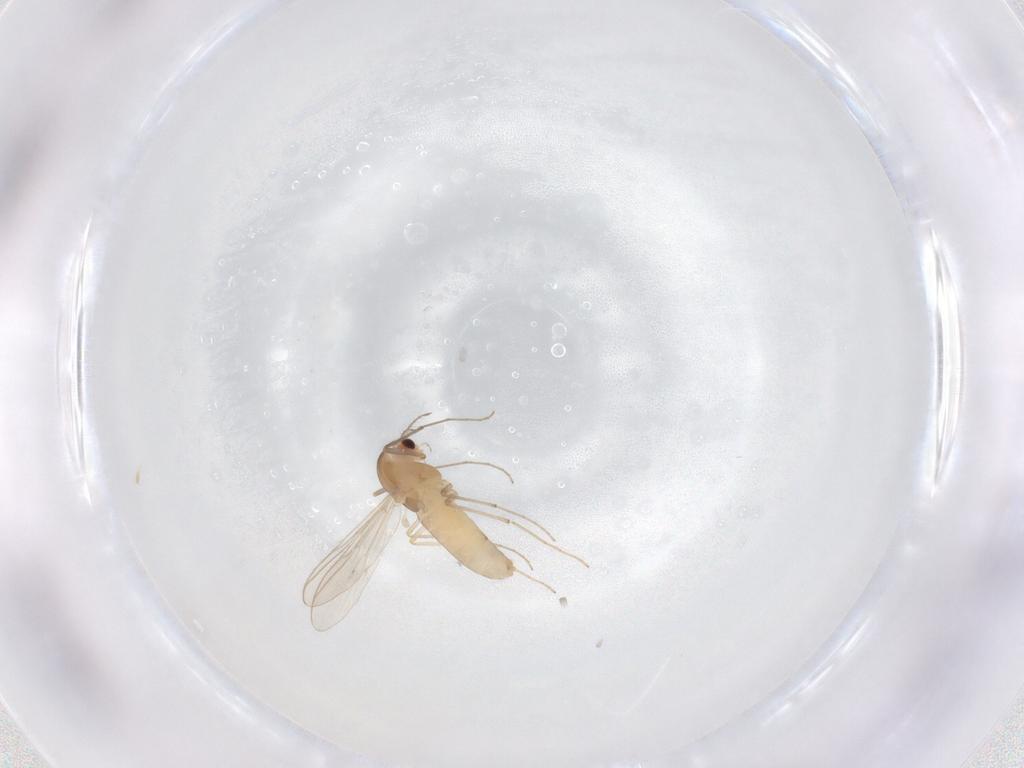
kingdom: Animalia
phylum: Arthropoda
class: Insecta
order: Diptera
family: Chironomidae
